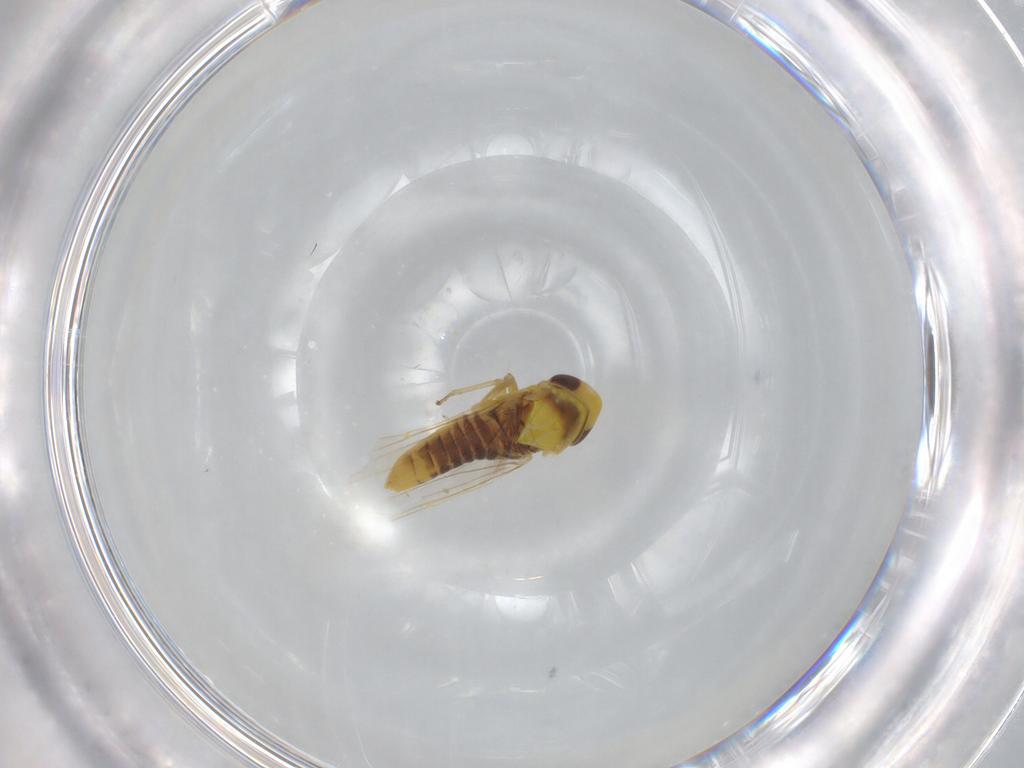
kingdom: Animalia
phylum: Arthropoda
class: Insecta
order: Hemiptera
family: Cicadellidae
